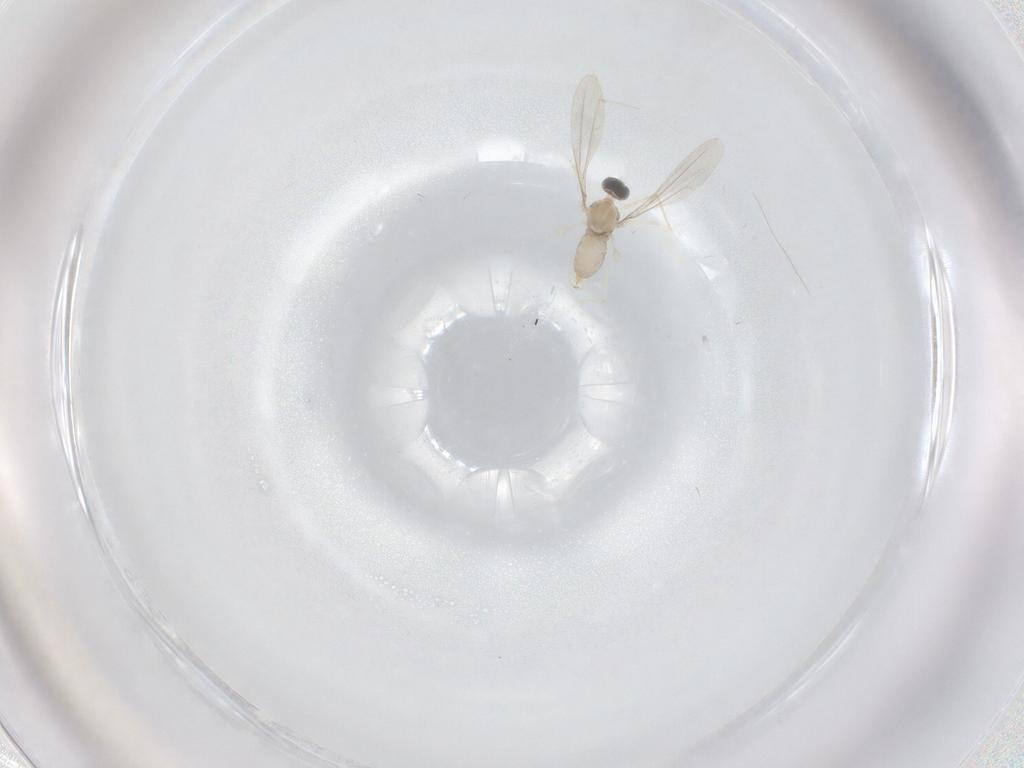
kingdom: Animalia
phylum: Arthropoda
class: Insecta
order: Diptera
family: Cecidomyiidae
